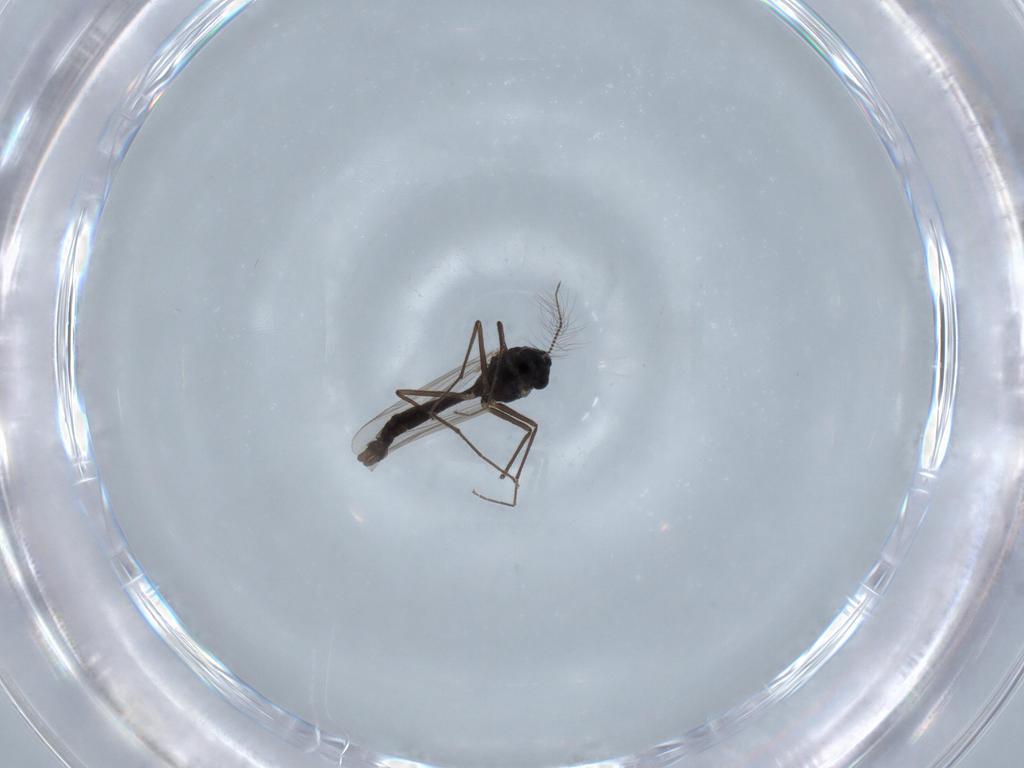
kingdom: Animalia
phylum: Arthropoda
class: Insecta
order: Diptera
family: Chironomidae
